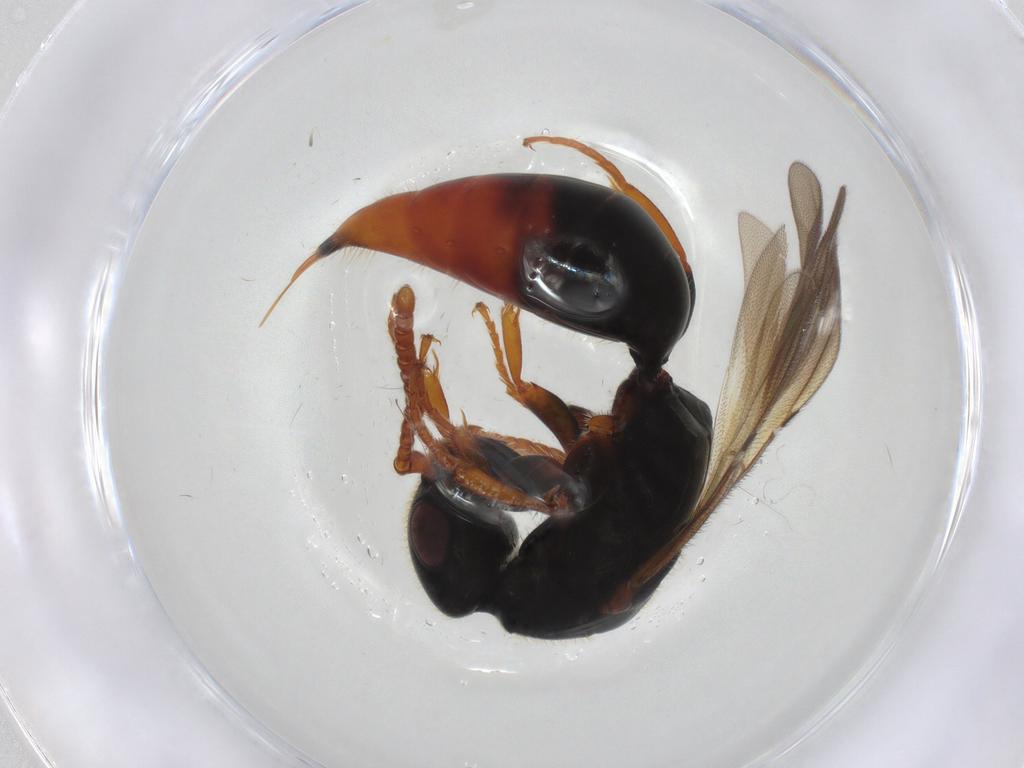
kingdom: Animalia
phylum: Arthropoda
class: Insecta
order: Hymenoptera
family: Bethylidae
